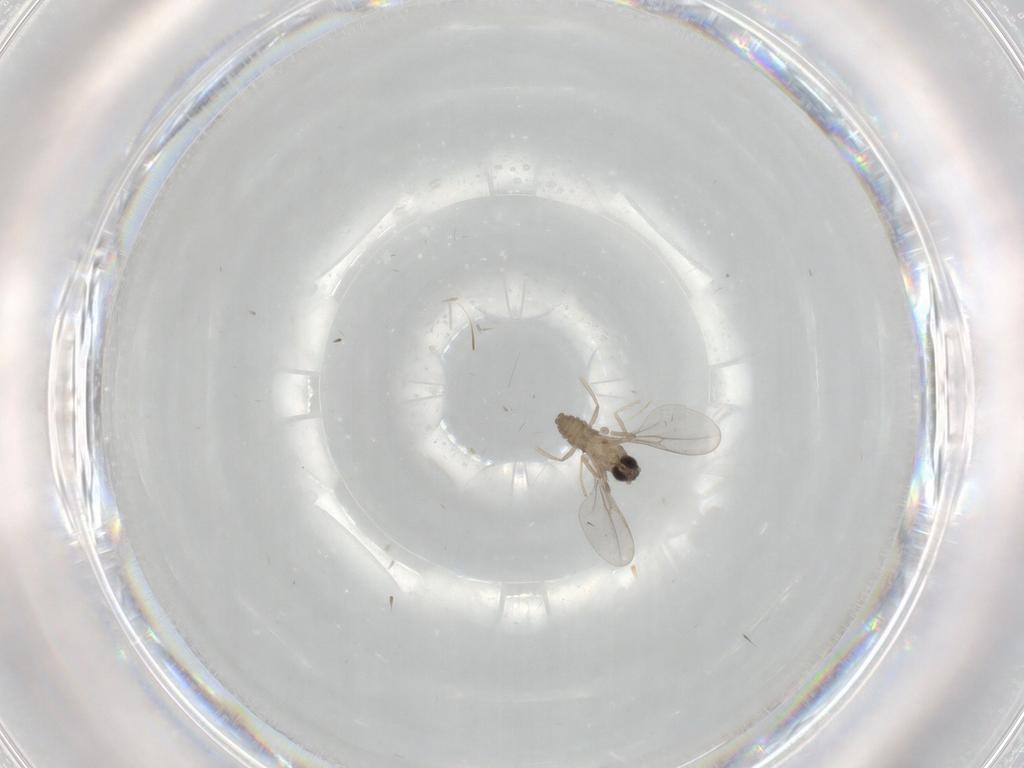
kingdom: Animalia
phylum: Arthropoda
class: Insecta
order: Diptera
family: Cecidomyiidae
